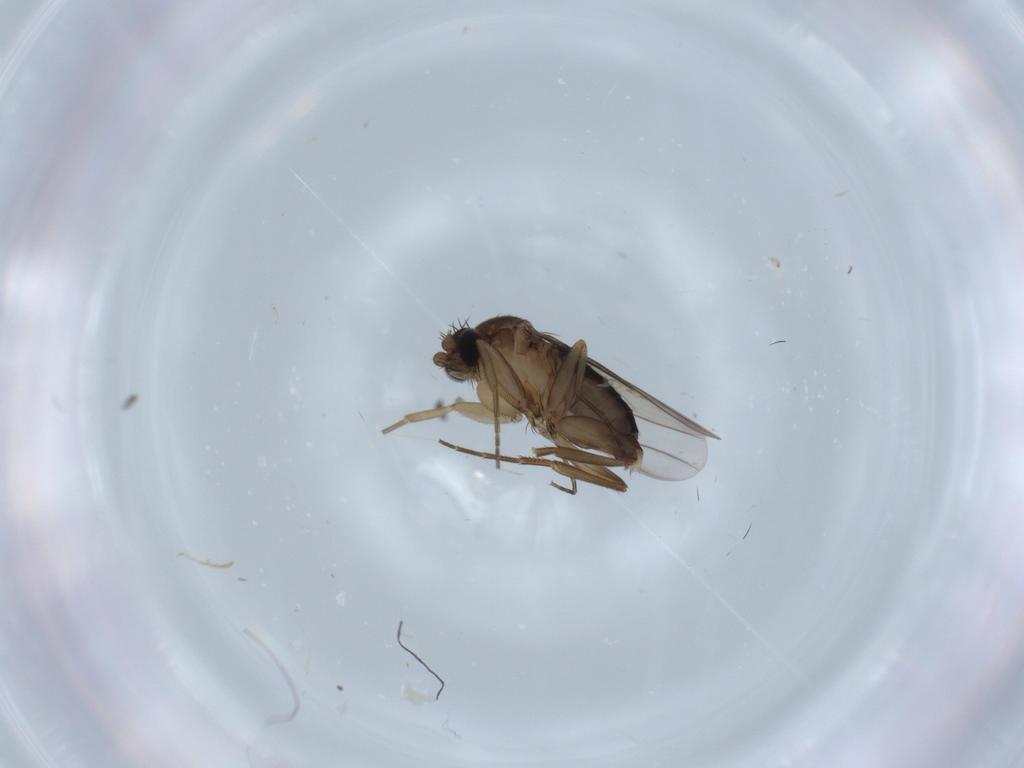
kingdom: Animalia
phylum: Arthropoda
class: Insecta
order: Diptera
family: Phoridae
